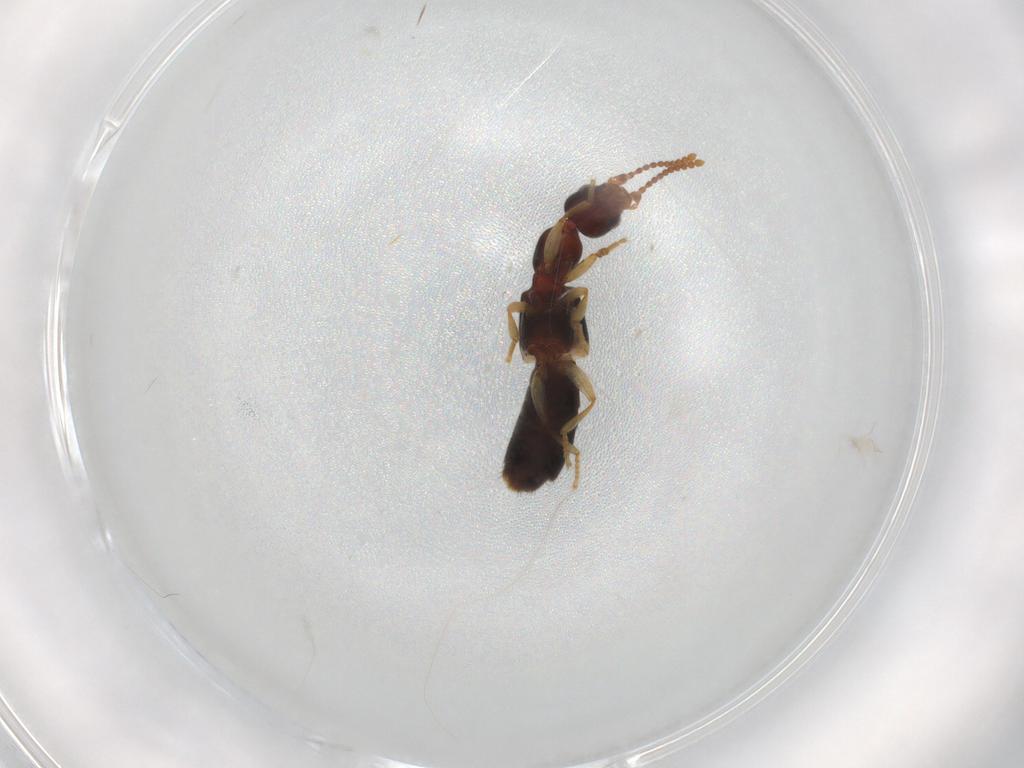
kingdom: Animalia
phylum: Arthropoda
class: Insecta
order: Coleoptera
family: Staphylinidae
